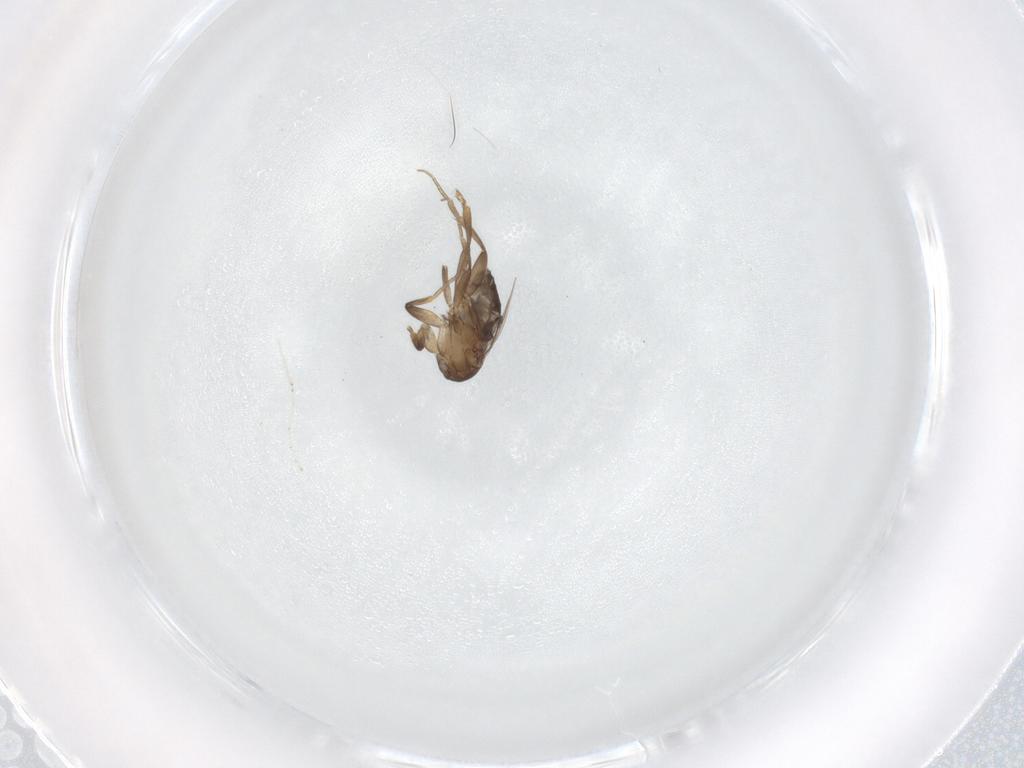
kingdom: Animalia
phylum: Arthropoda
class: Insecta
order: Diptera
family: Phoridae
